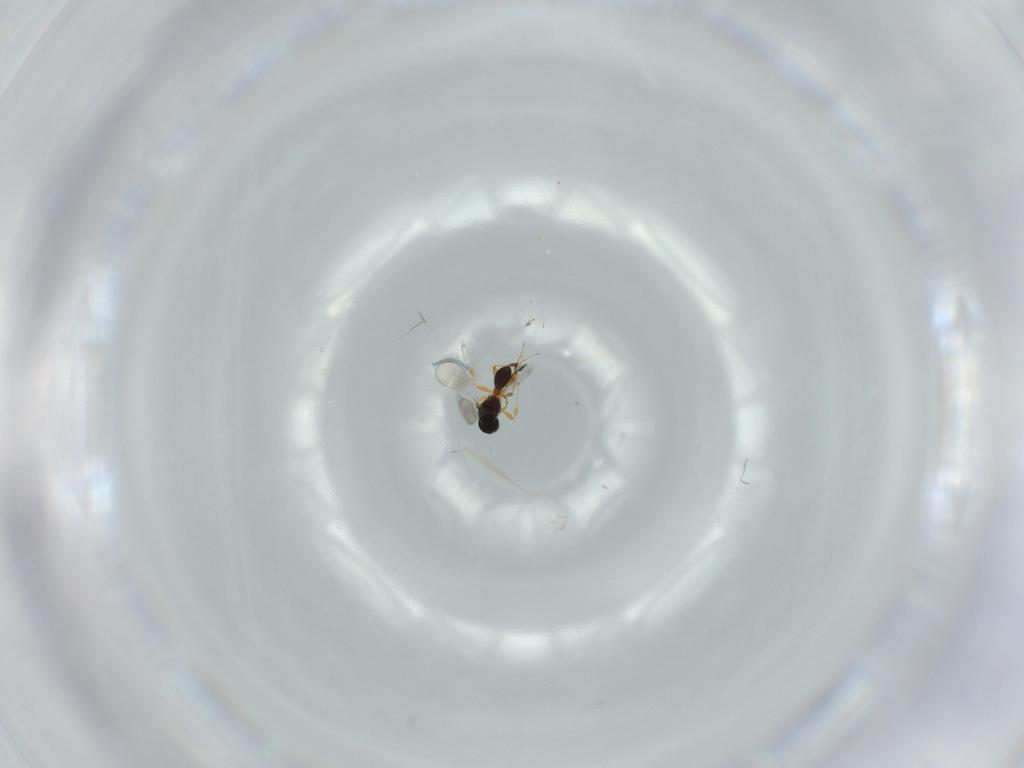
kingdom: Animalia
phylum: Arthropoda
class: Insecta
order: Hymenoptera
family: Platygastridae
